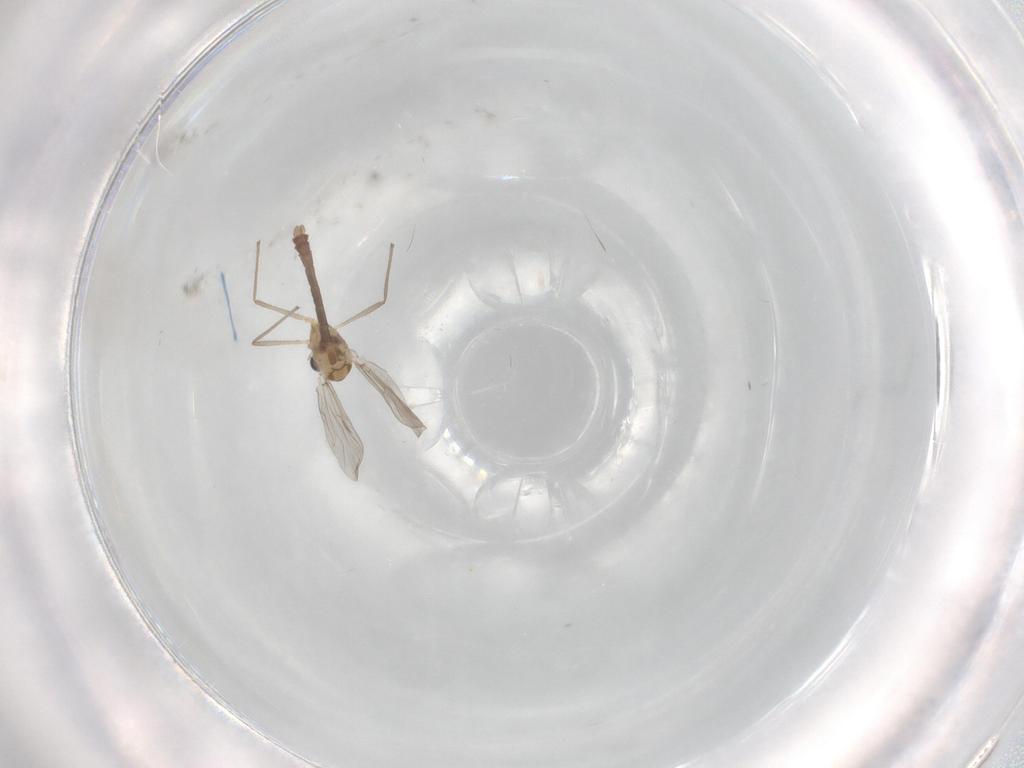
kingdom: Animalia
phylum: Arthropoda
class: Insecta
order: Diptera
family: Chironomidae
